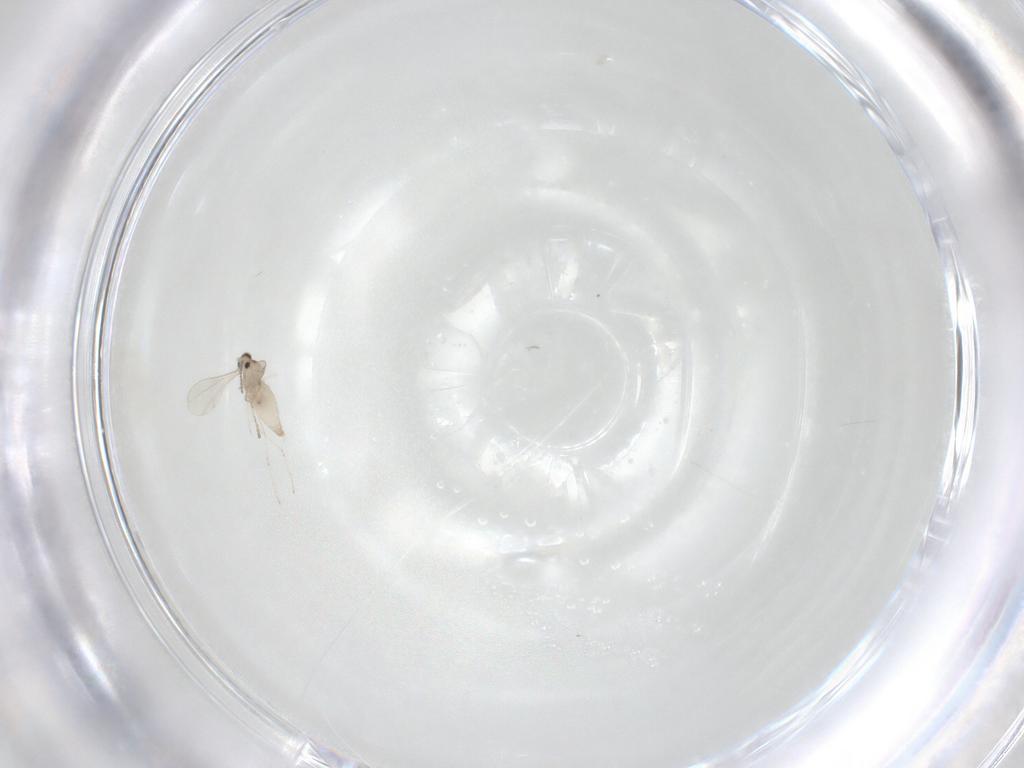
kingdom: Animalia
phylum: Arthropoda
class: Insecta
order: Diptera
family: Cecidomyiidae
